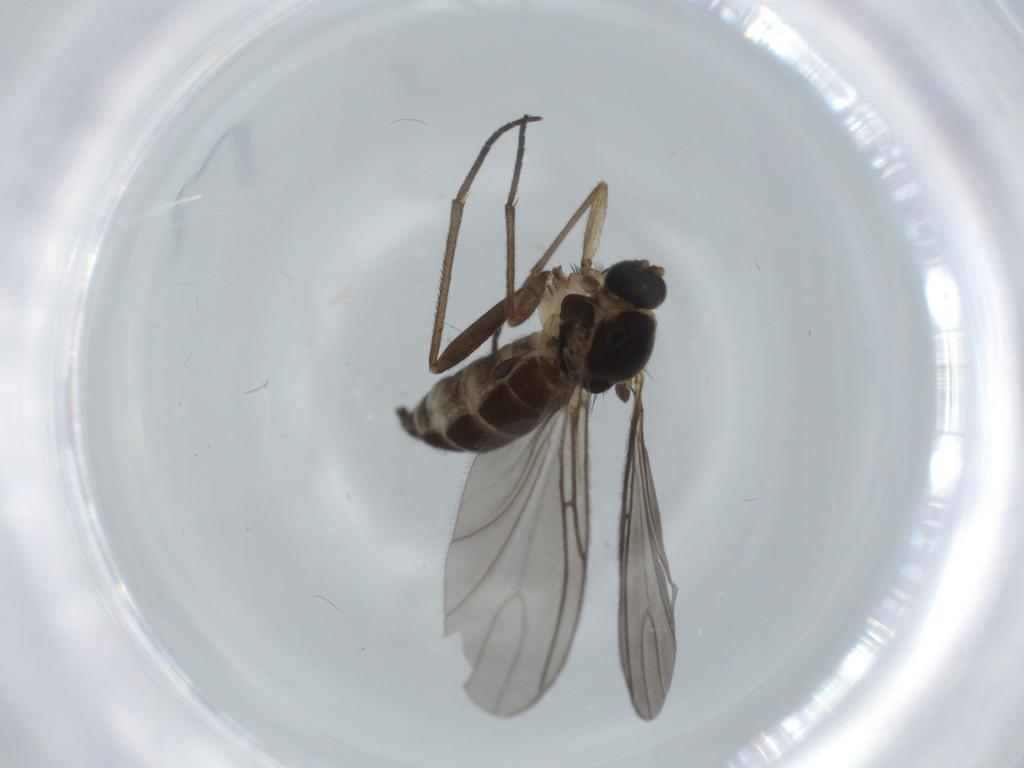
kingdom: Animalia
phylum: Arthropoda
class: Insecta
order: Diptera
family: Sciaridae
